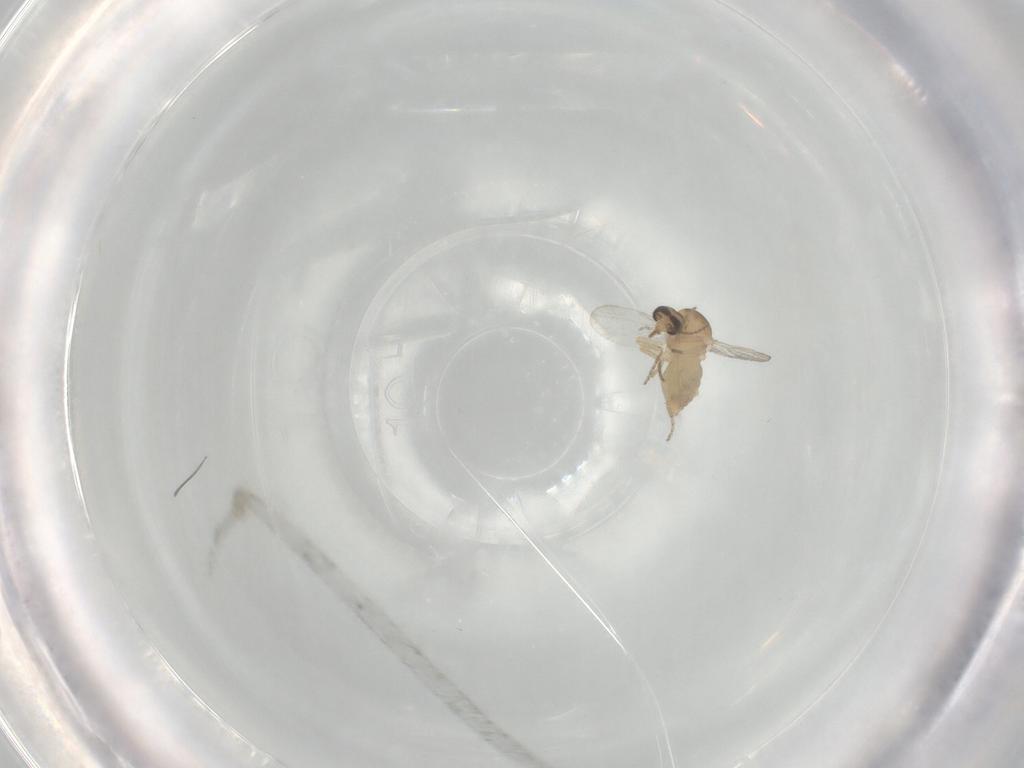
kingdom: Animalia
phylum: Arthropoda
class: Insecta
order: Diptera
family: Ceratopogonidae
